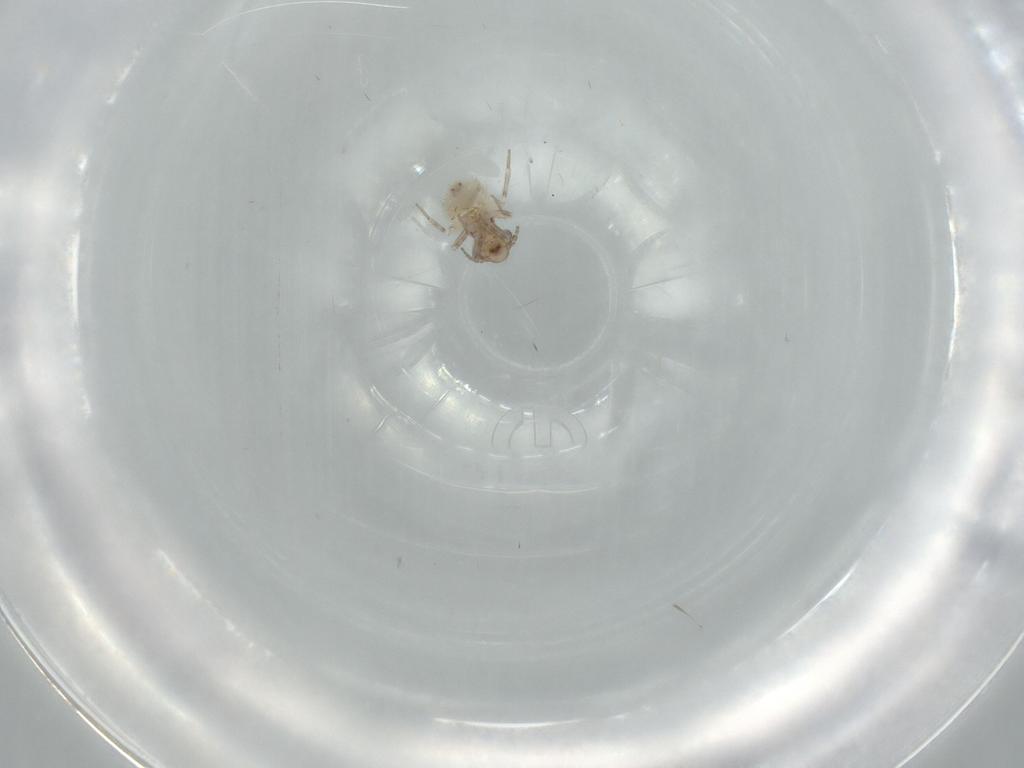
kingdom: Animalia
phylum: Arthropoda
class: Insecta
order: Psocodea
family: Lepidopsocidae
